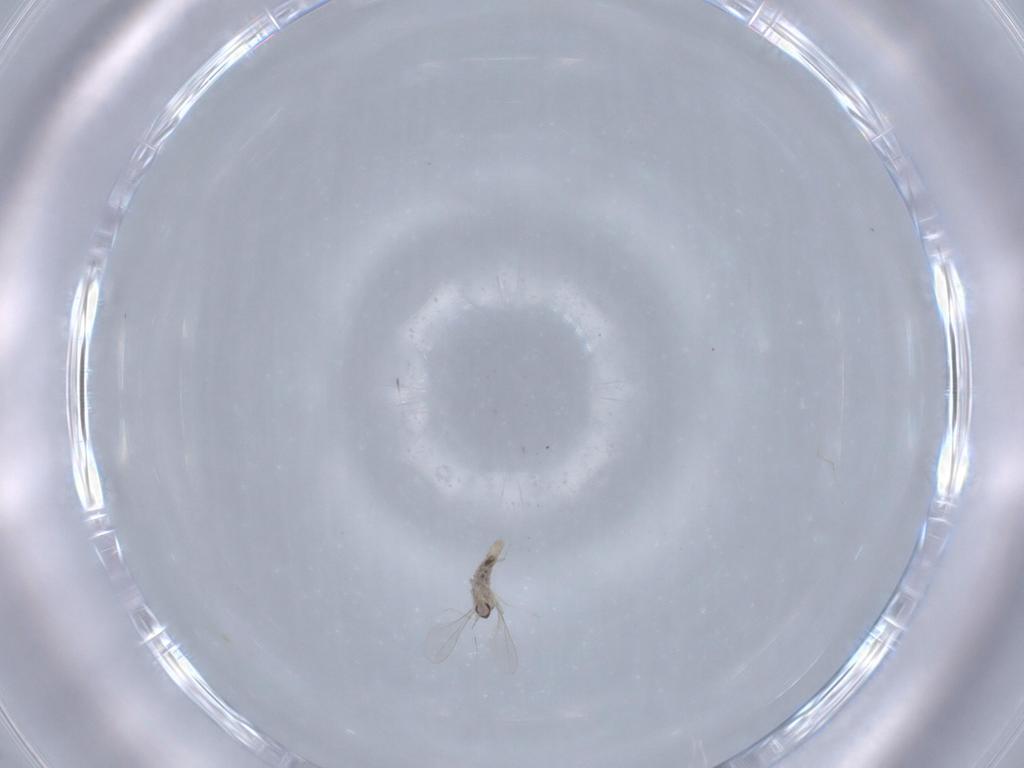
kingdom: Animalia
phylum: Arthropoda
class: Insecta
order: Diptera
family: Cecidomyiidae
